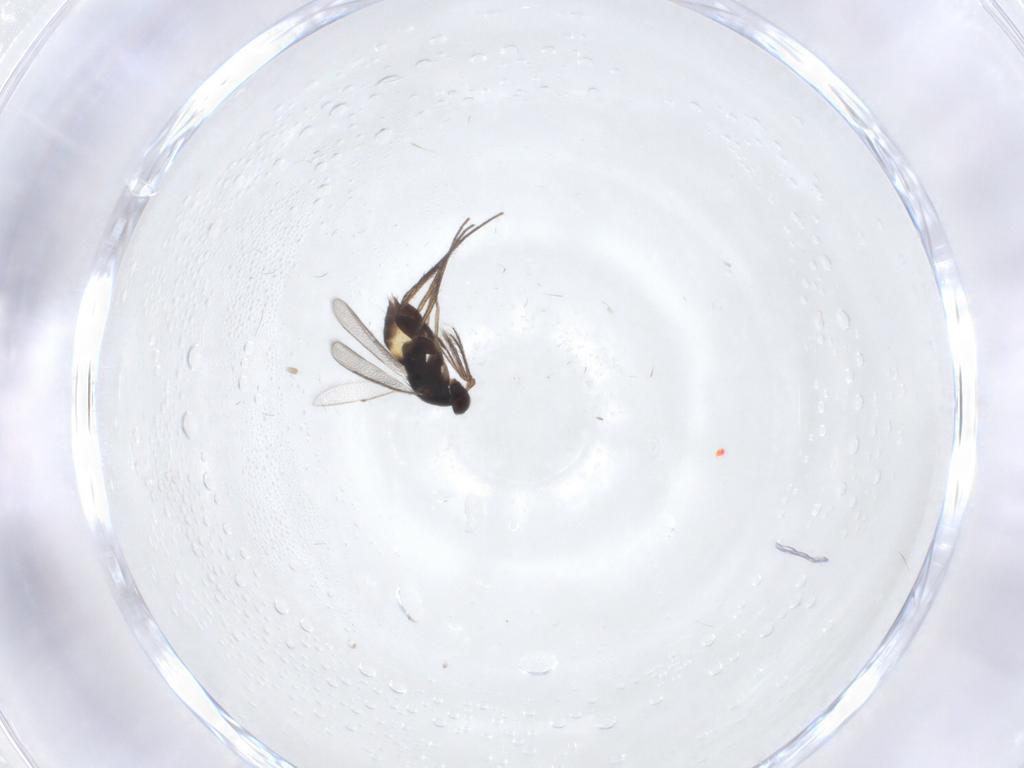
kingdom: Animalia
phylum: Arthropoda
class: Insecta
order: Hymenoptera
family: Eulophidae
